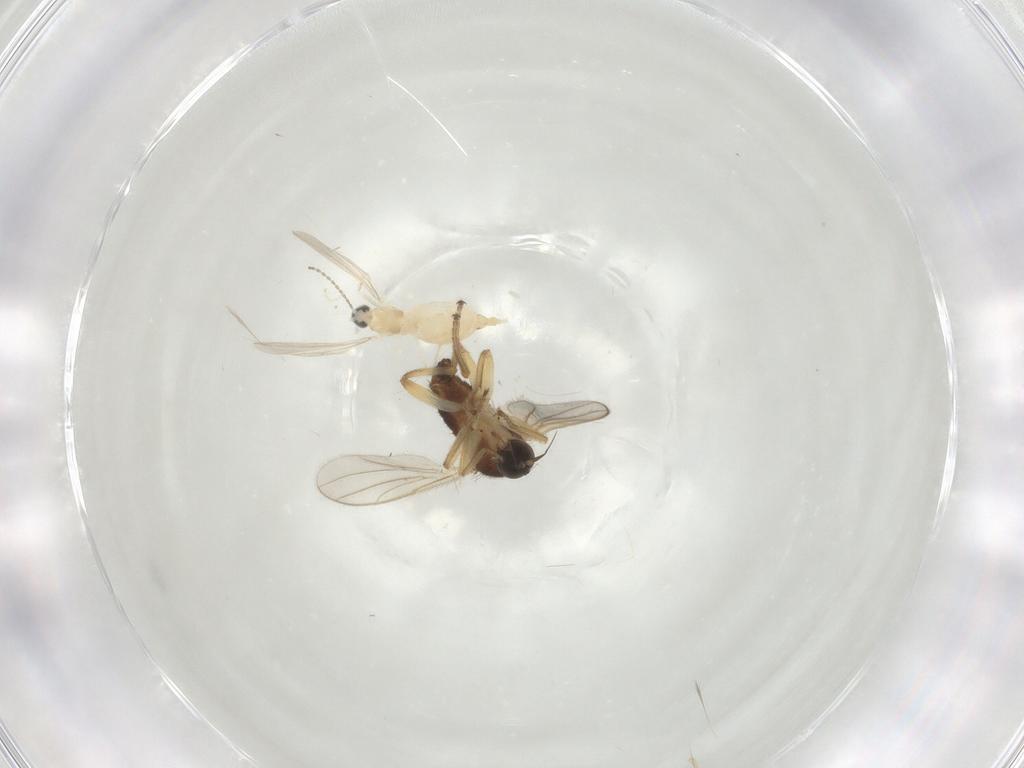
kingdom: Animalia
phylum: Arthropoda
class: Insecta
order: Diptera
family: Hybotidae
